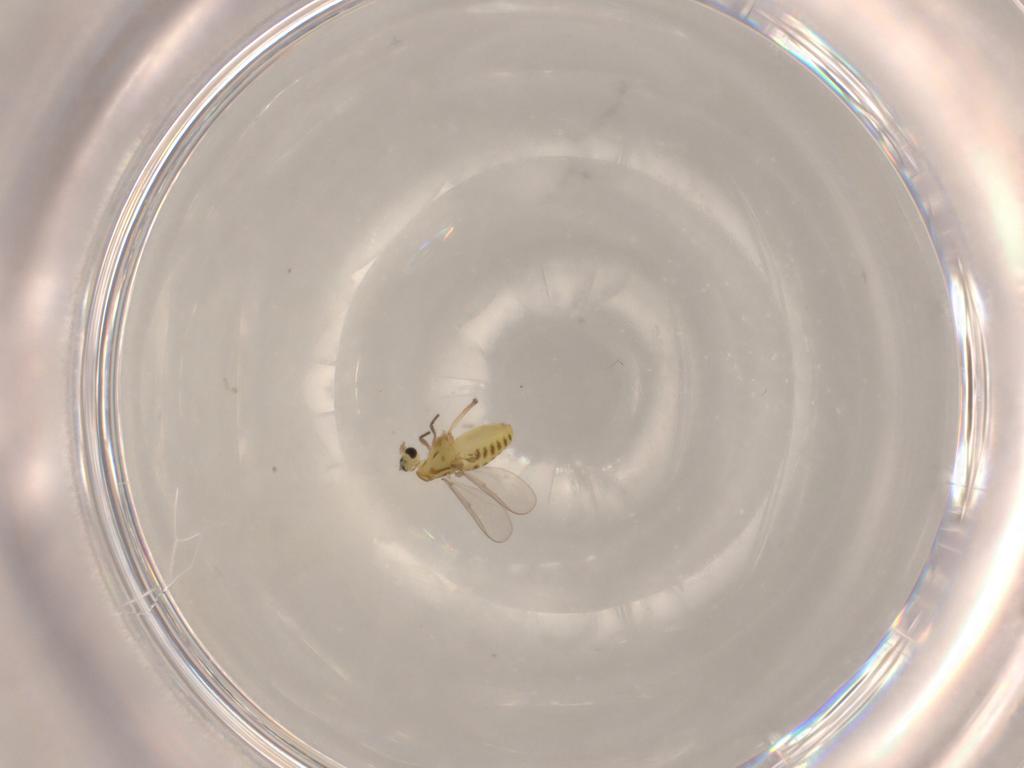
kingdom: Animalia
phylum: Arthropoda
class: Insecta
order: Diptera
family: Chironomidae
